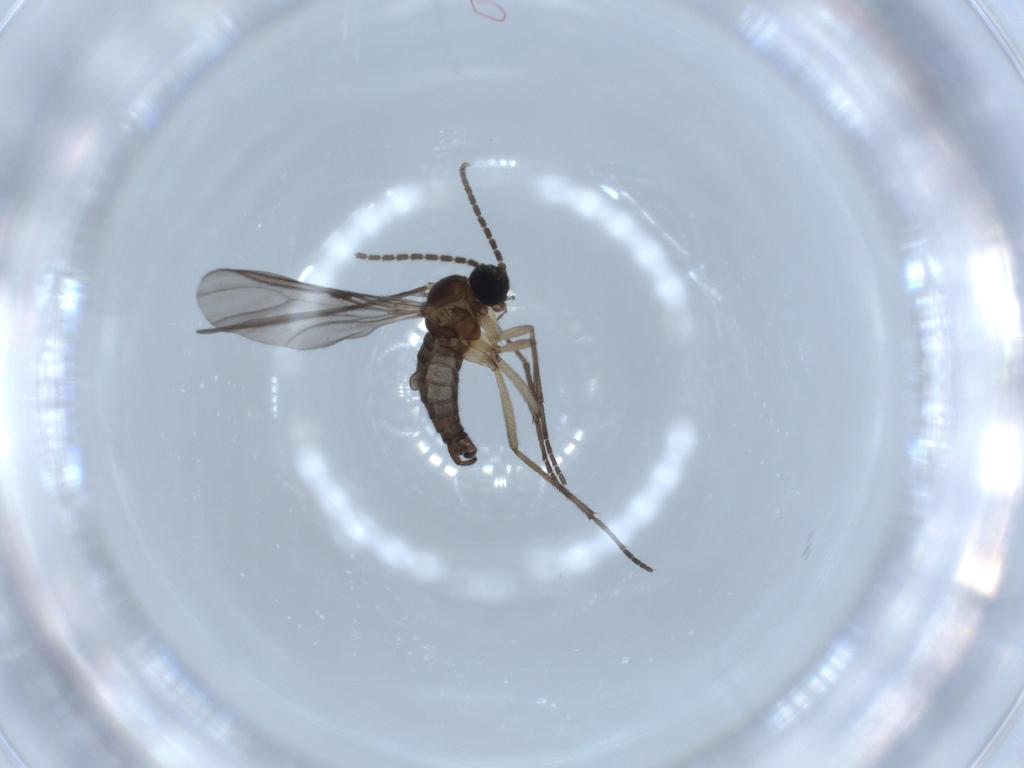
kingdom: Animalia
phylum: Arthropoda
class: Insecta
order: Diptera
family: Sciaridae
